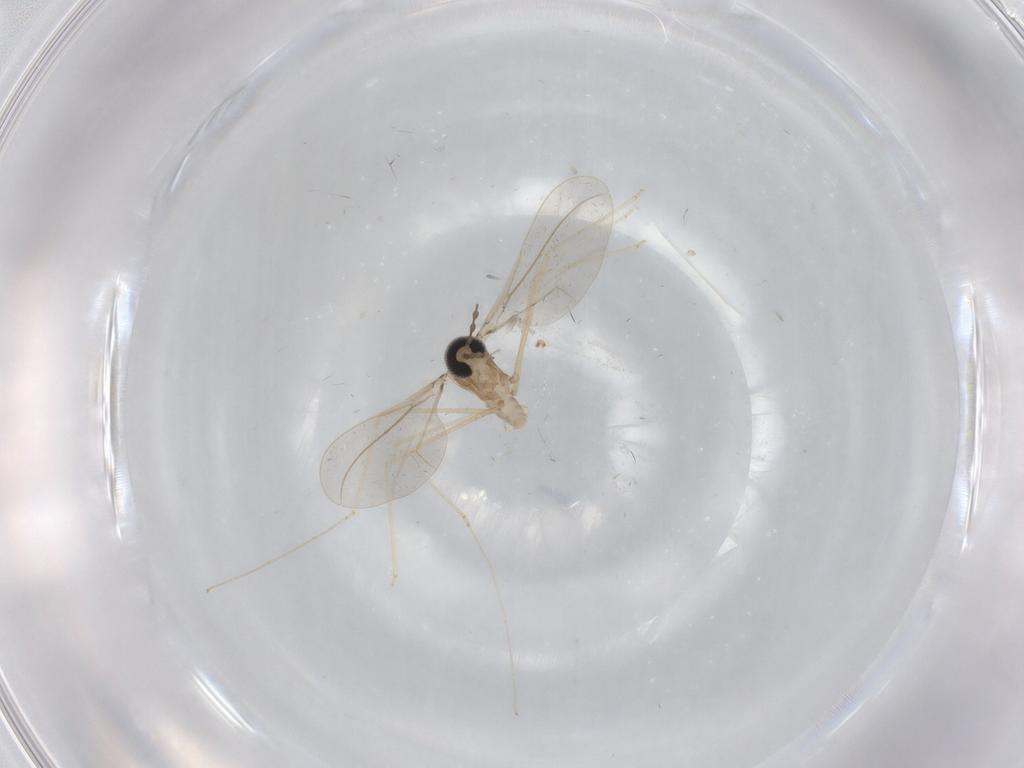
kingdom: Animalia
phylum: Arthropoda
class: Insecta
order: Diptera
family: Cecidomyiidae
